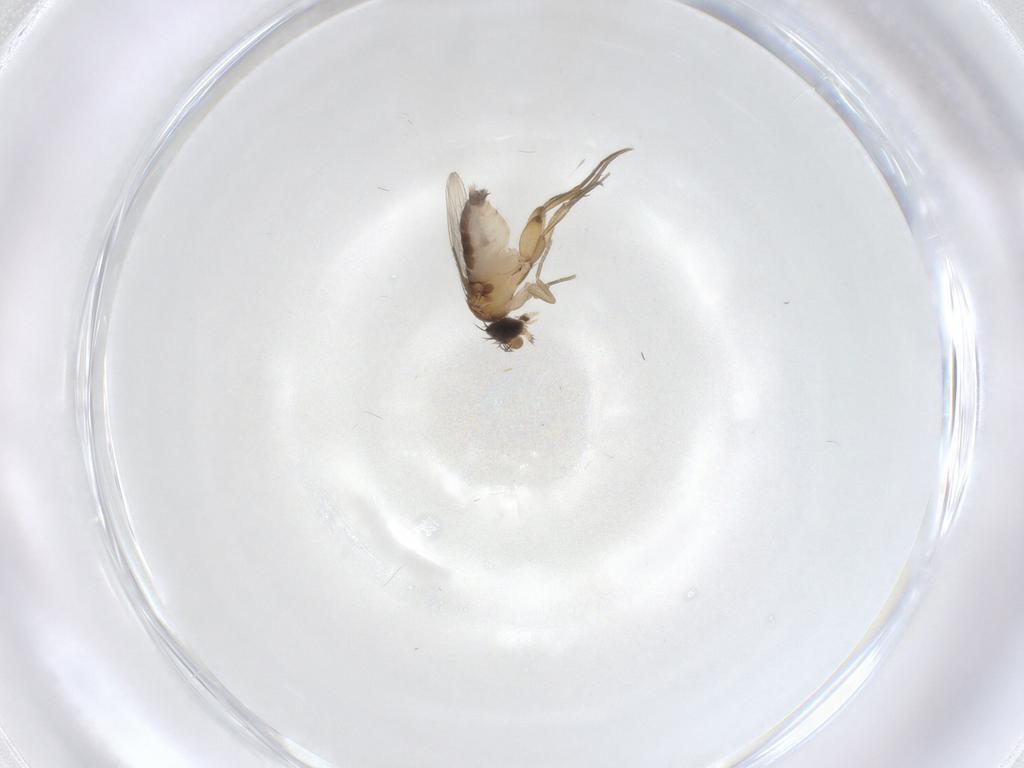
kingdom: Animalia
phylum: Arthropoda
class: Insecta
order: Diptera
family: Phoridae
